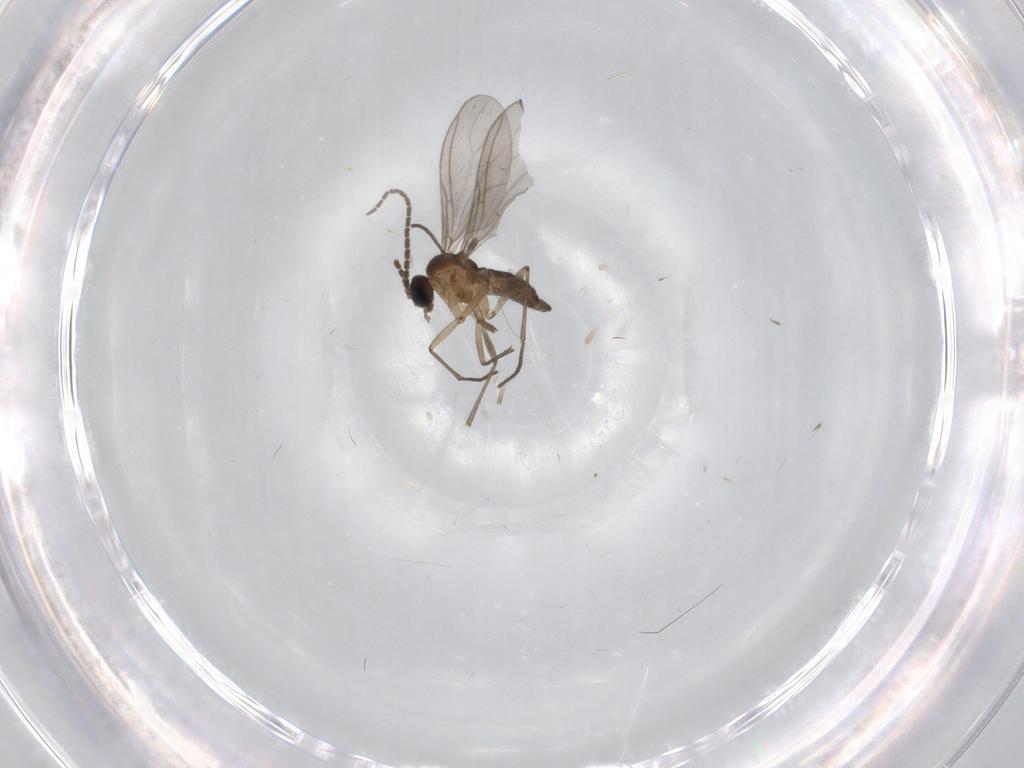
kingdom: Animalia
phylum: Arthropoda
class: Insecta
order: Diptera
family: Sciaridae
